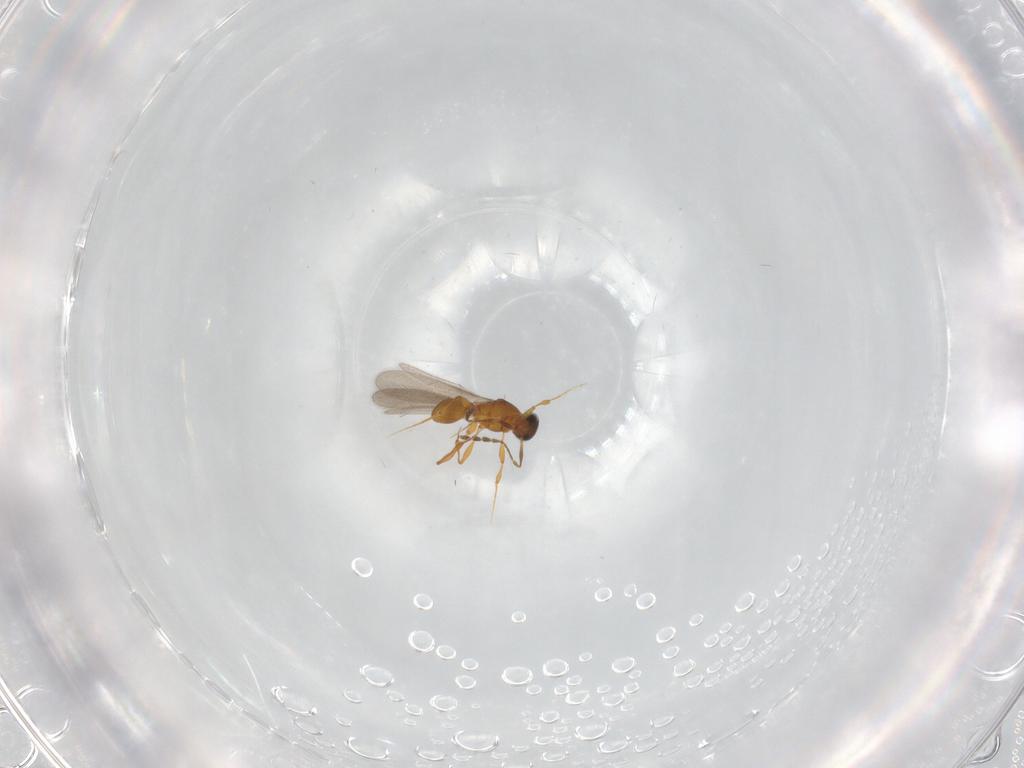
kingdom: Animalia
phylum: Arthropoda
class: Insecta
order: Hymenoptera
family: Platygastridae
